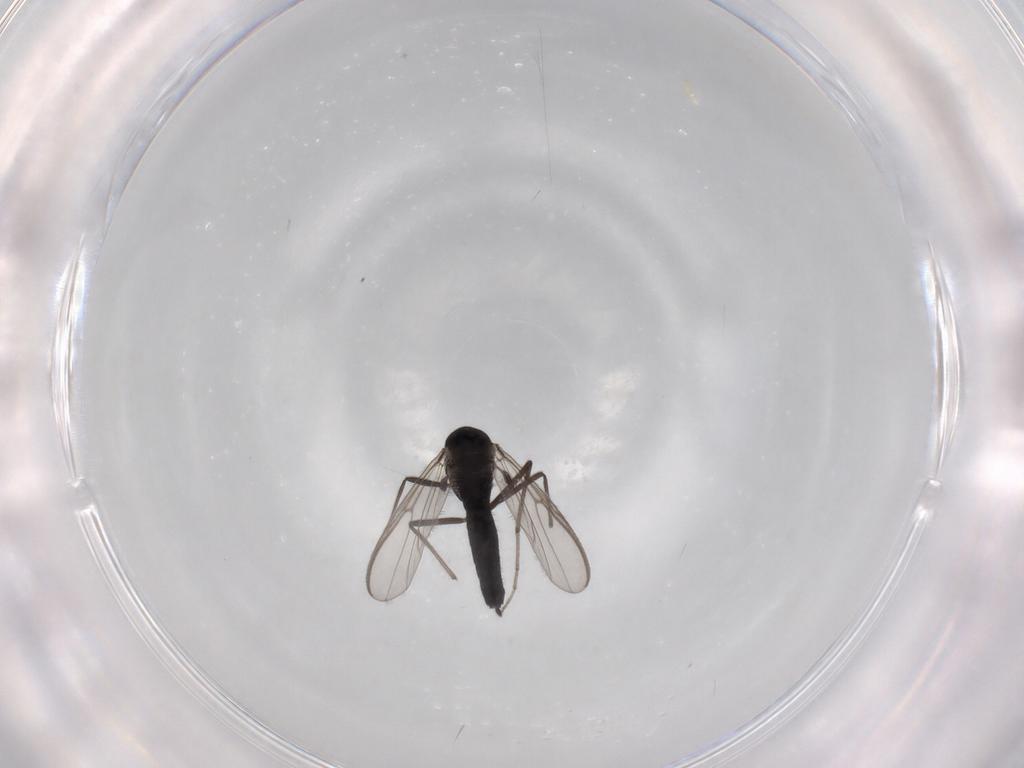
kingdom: Animalia
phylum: Arthropoda
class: Insecta
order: Diptera
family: Chironomidae
